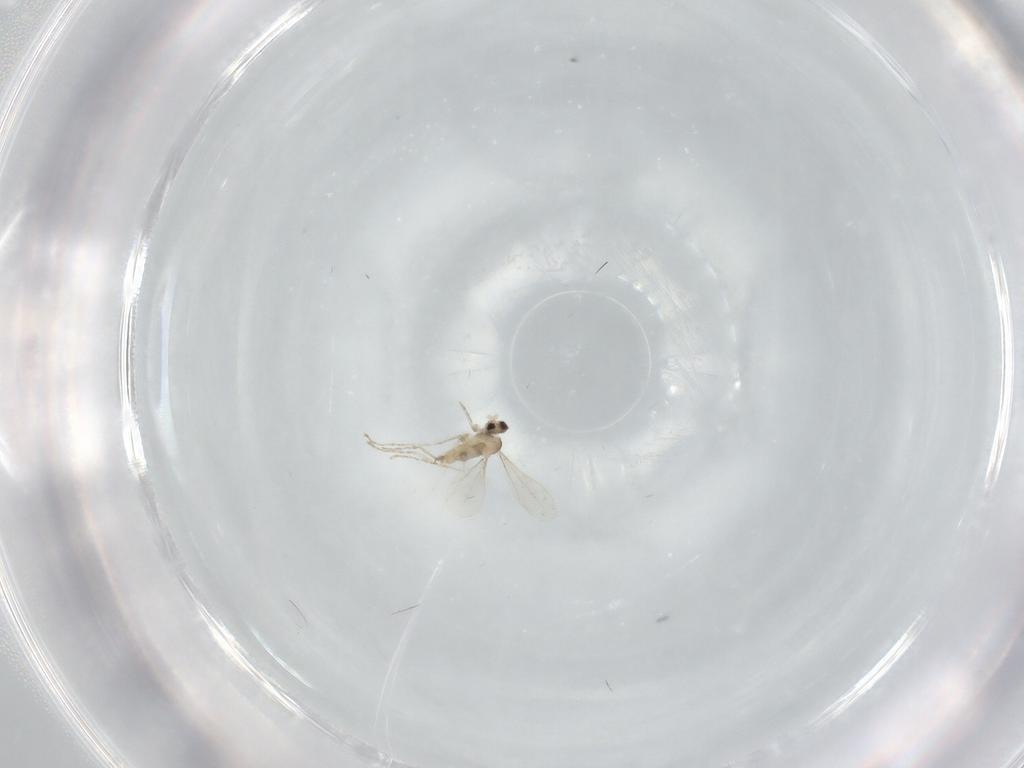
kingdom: Animalia
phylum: Arthropoda
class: Insecta
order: Diptera
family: Cecidomyiidae
